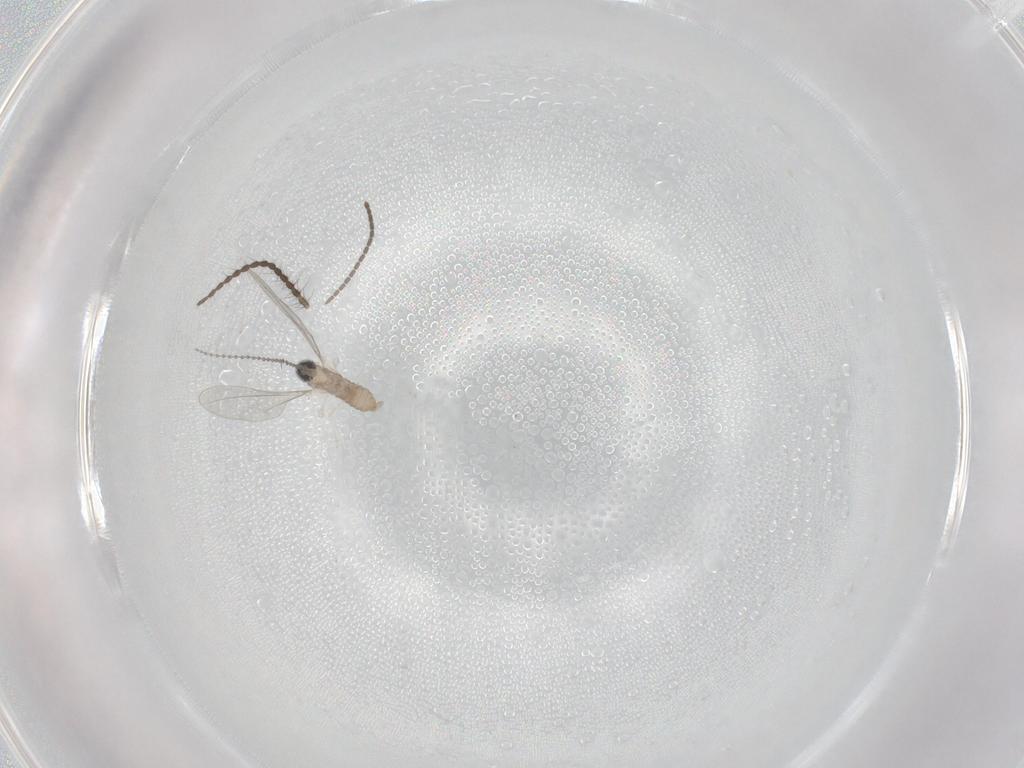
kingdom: Animalia
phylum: Arthropoda
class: Insecta
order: Diptera
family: Cecidomyiidae
